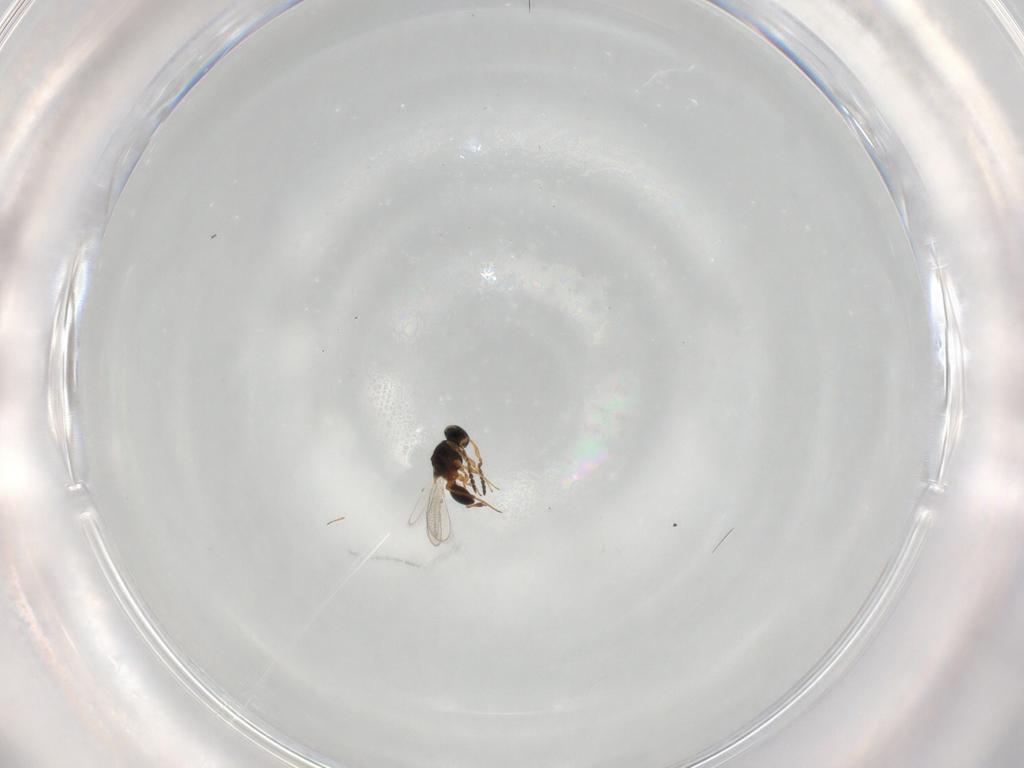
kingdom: Animalia
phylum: Arthropoda
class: Insecta
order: Hymenoptera
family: Platygastridae
